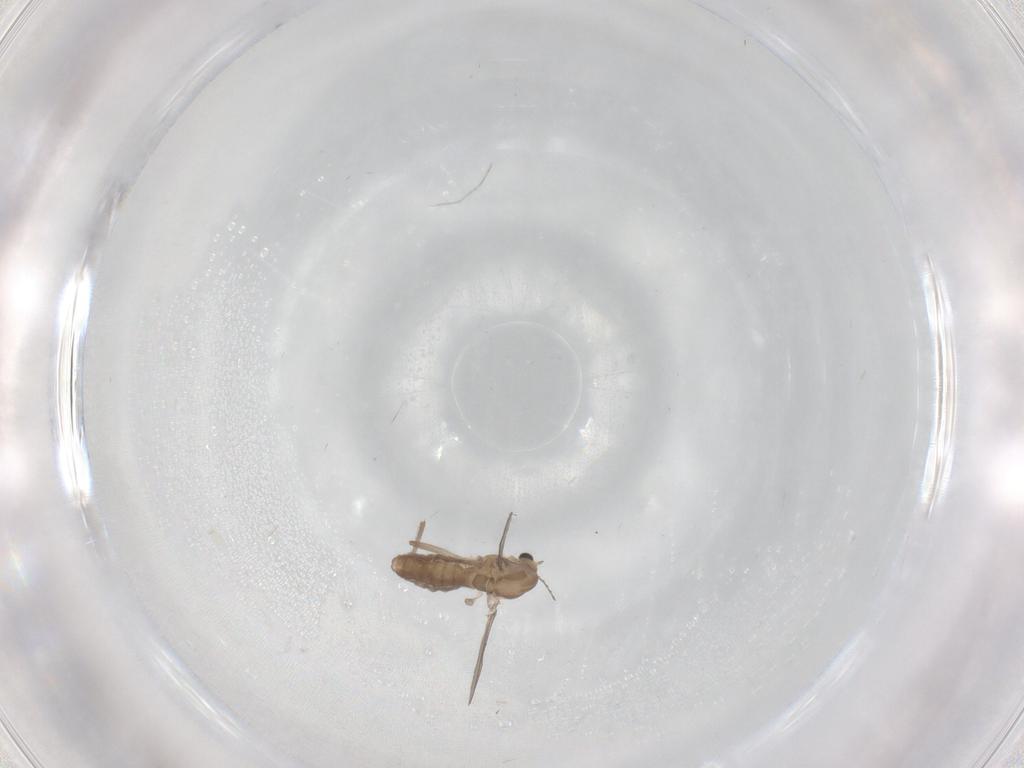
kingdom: Animalia
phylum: Arthropoda
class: Insecta
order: Diptera
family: Chironomidae
